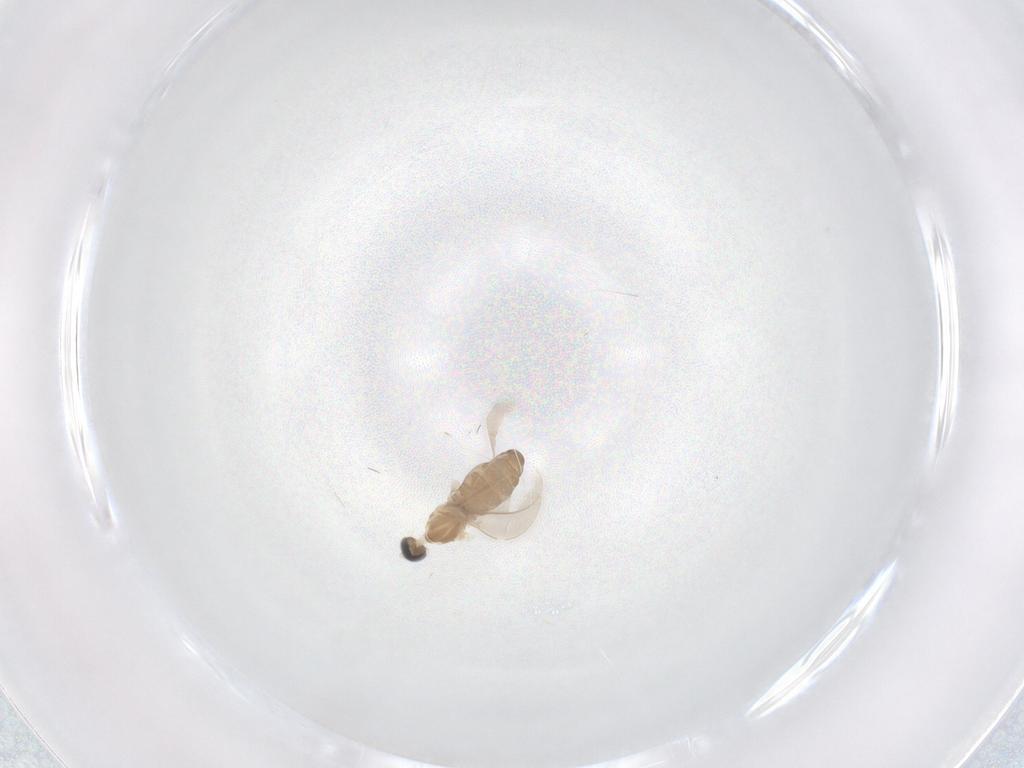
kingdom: Animalia
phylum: Arthropoda
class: Insecta
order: Diptera
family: Cecidomyiidae
